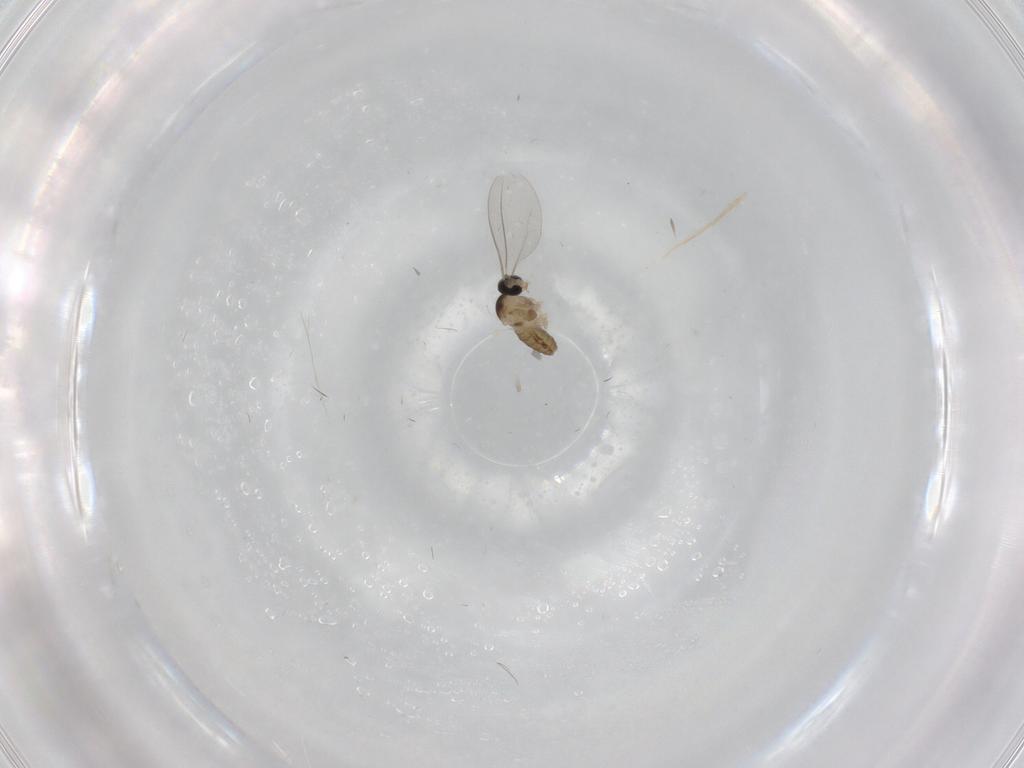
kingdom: Animalia
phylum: Arthropoda
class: Insecta
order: Diptera
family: Cecidomyiidae
